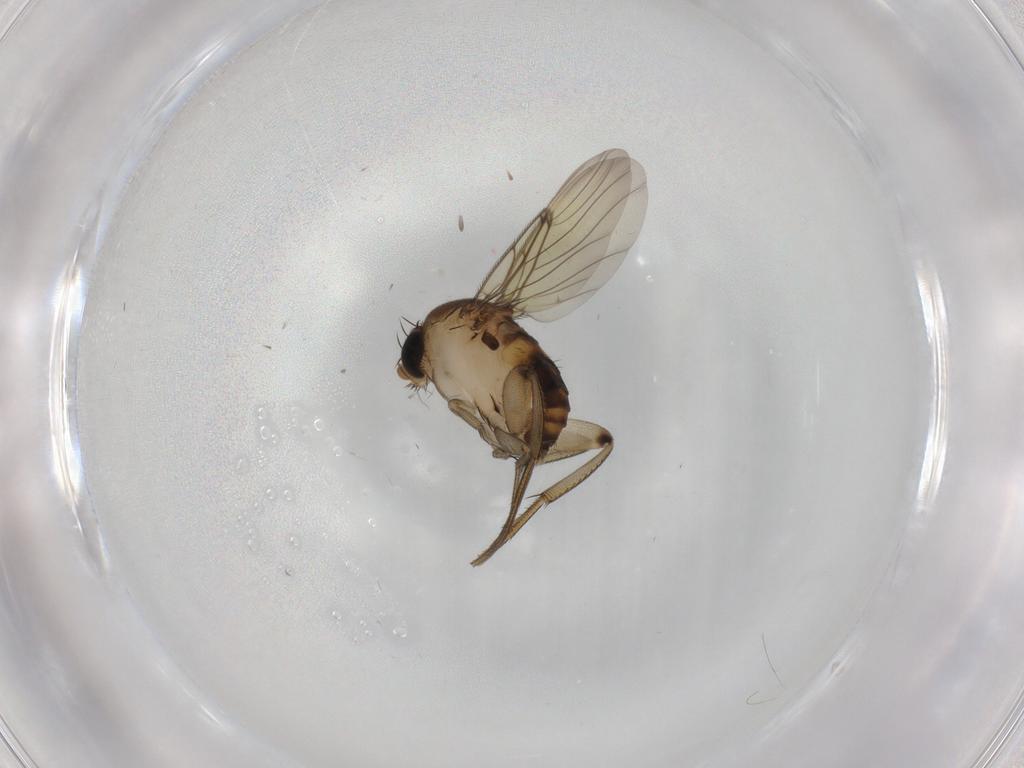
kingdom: Animalia
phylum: Arthropoda
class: Insecta
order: Diptera
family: Phoridae
